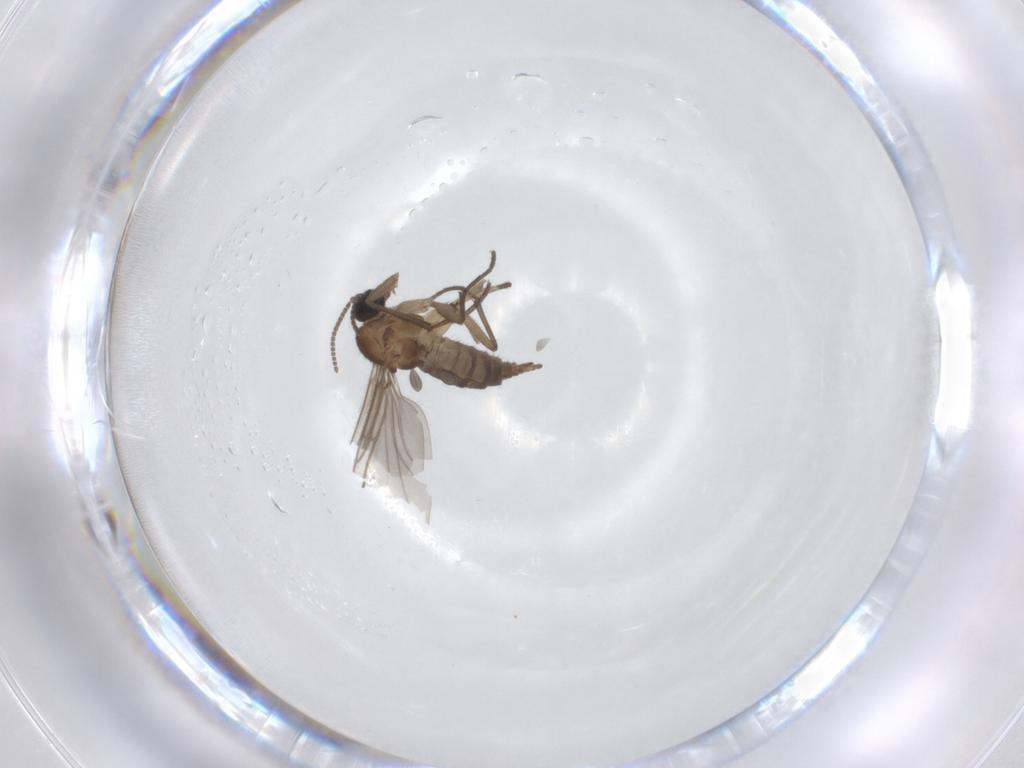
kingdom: Animalia
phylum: Arthropoda
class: Insecta
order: Diptera
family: Sciaridae
